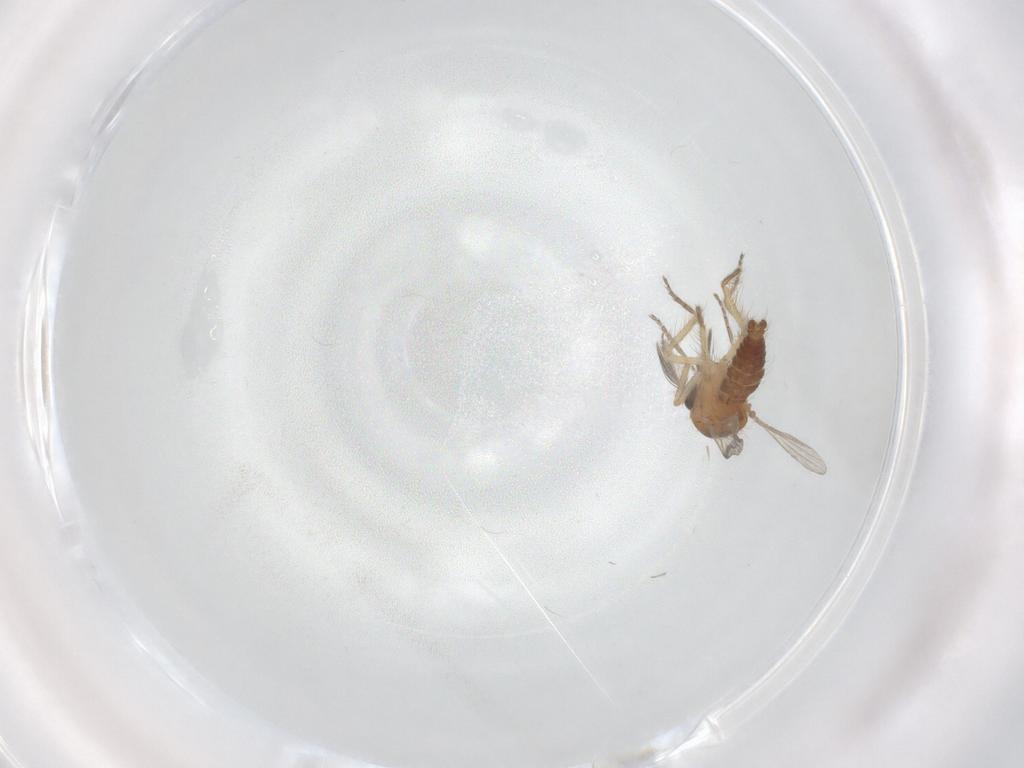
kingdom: Animalia
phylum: Arthropoda
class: Insecta
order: Diptera
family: Ceratopogonidae
